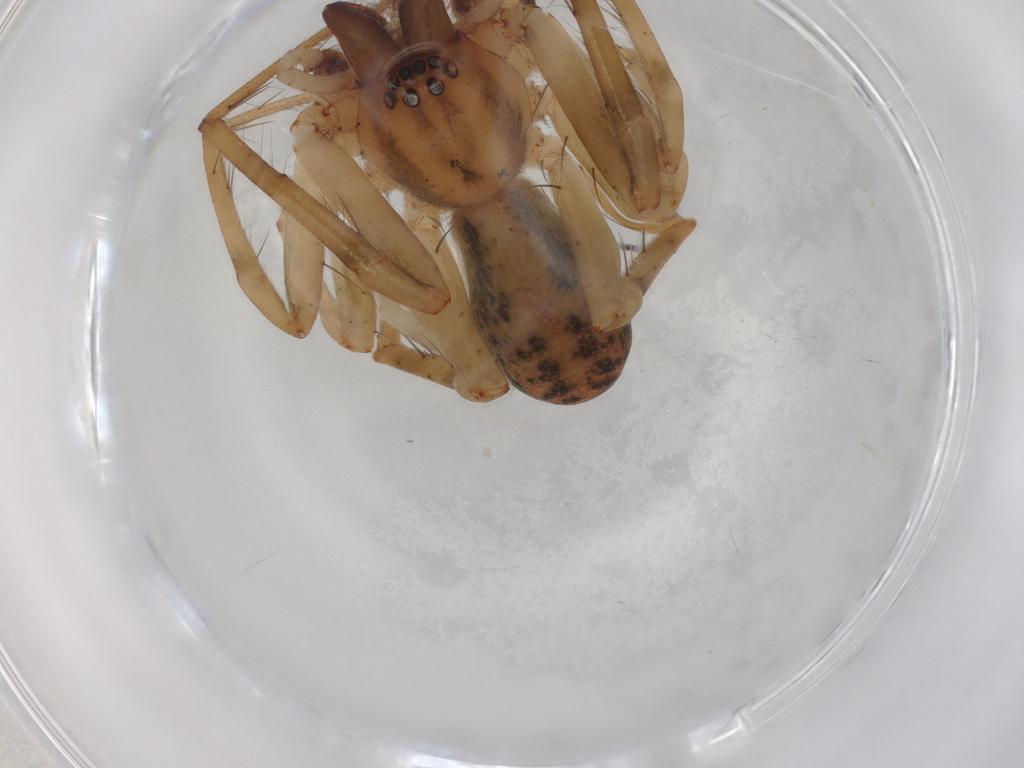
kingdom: Animalia
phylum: Arthropoda
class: Arachnida
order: Araneae
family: Anyphaenidae
